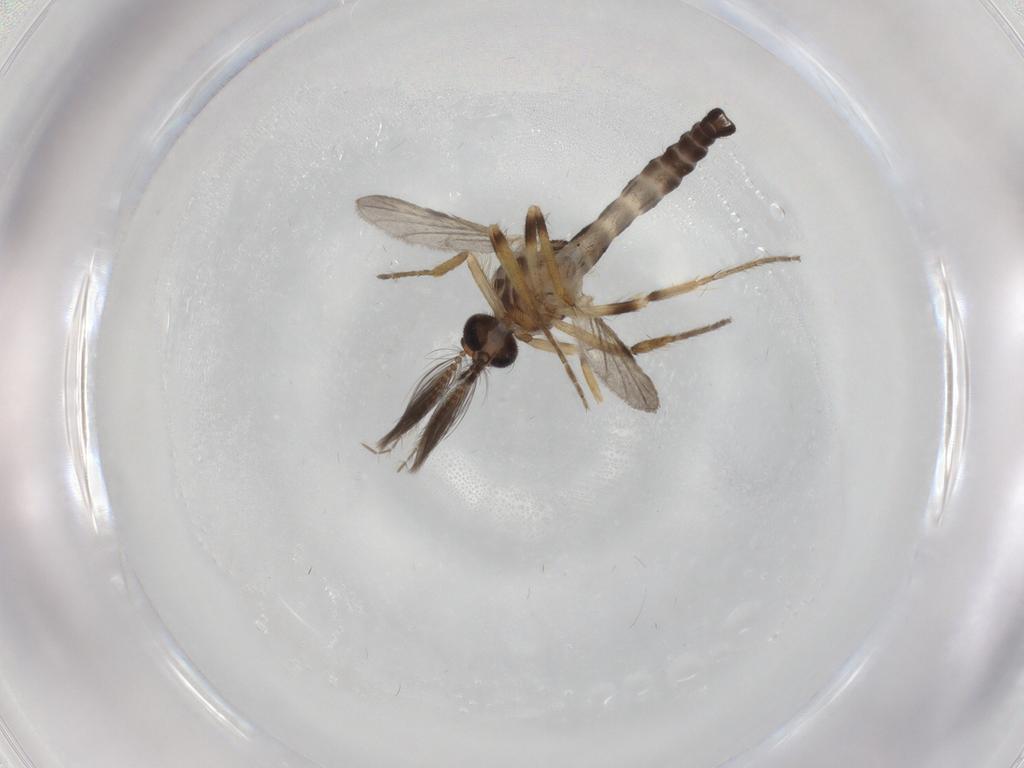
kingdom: Animalia
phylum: Arthropoda
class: Insecta
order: Diptera
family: Ceratopogonidae
